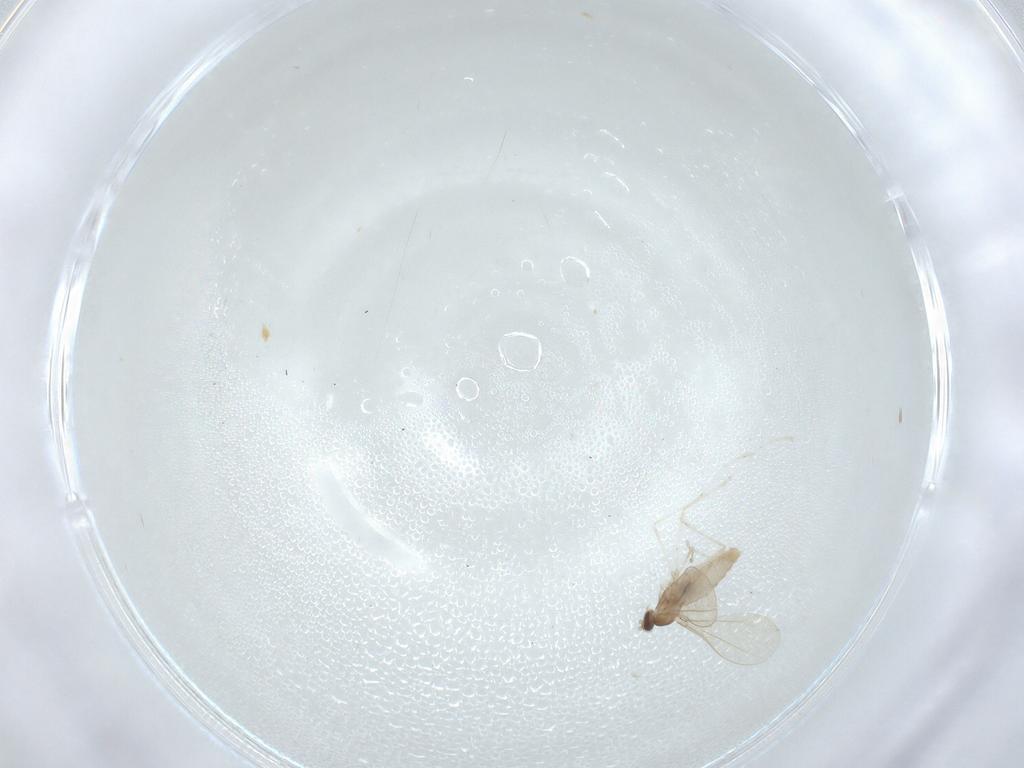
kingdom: Animalia
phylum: Arthropoda
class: Insecta
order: Diptera
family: Cecidomyiidae
